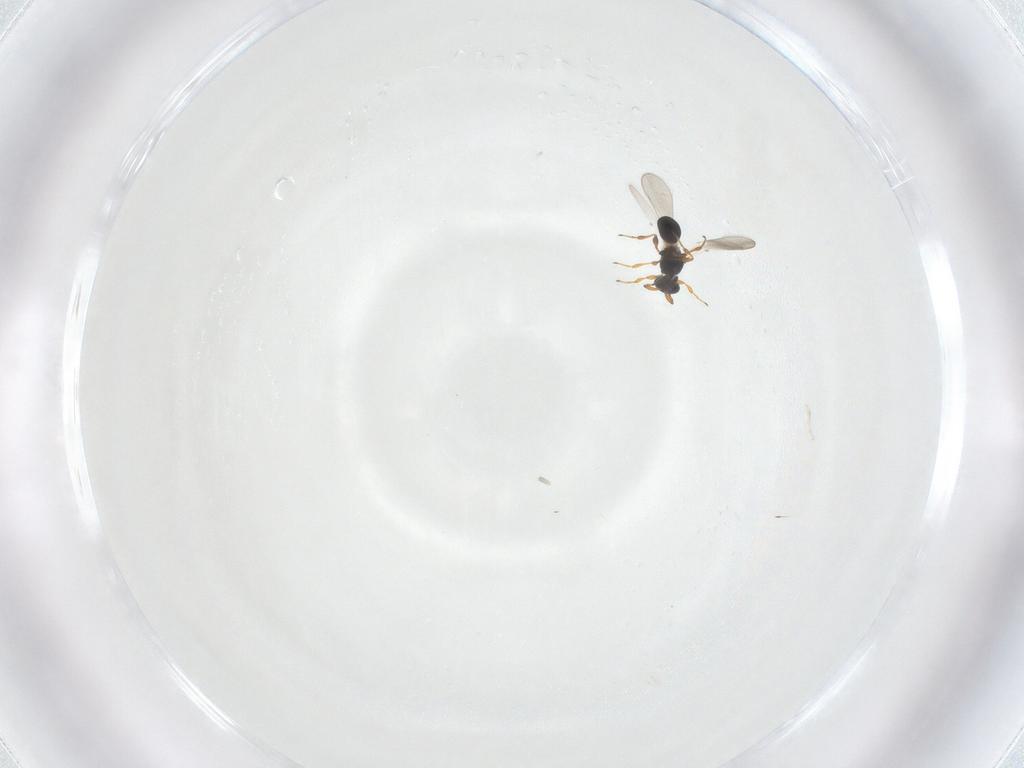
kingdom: Animalia
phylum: Arthropoda
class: Insecta
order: Hymenoptera
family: Platygastridae
